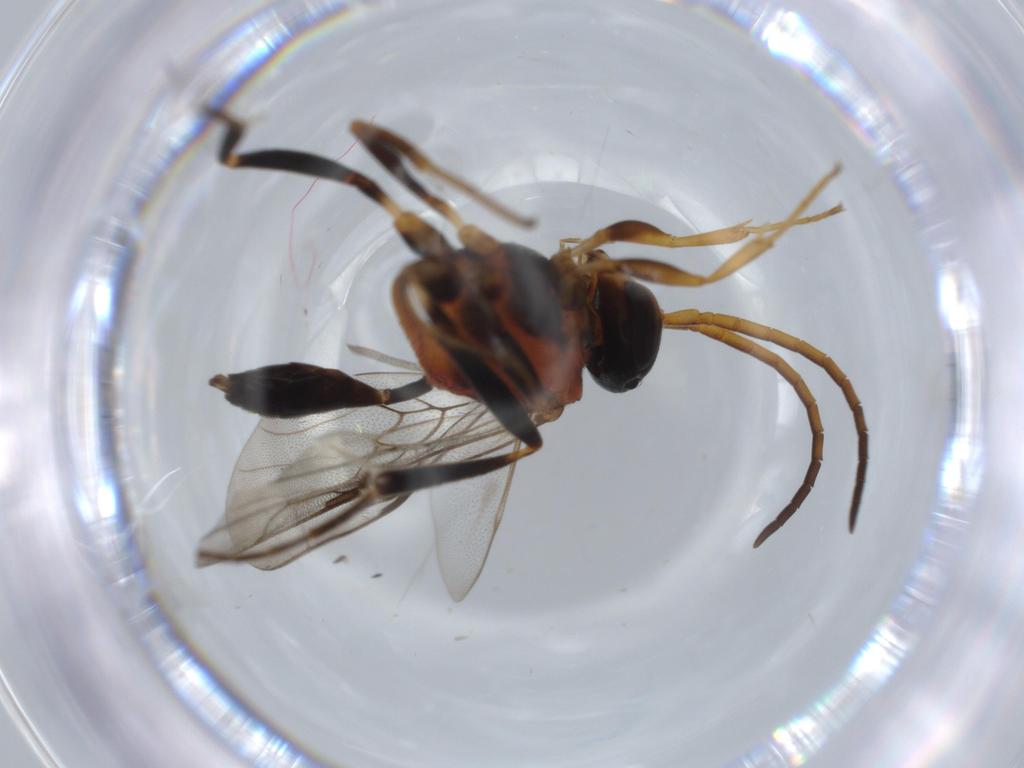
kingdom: Animalia
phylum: Arthropoda
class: Insecta
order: Hymenoptera
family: Evaniidae
